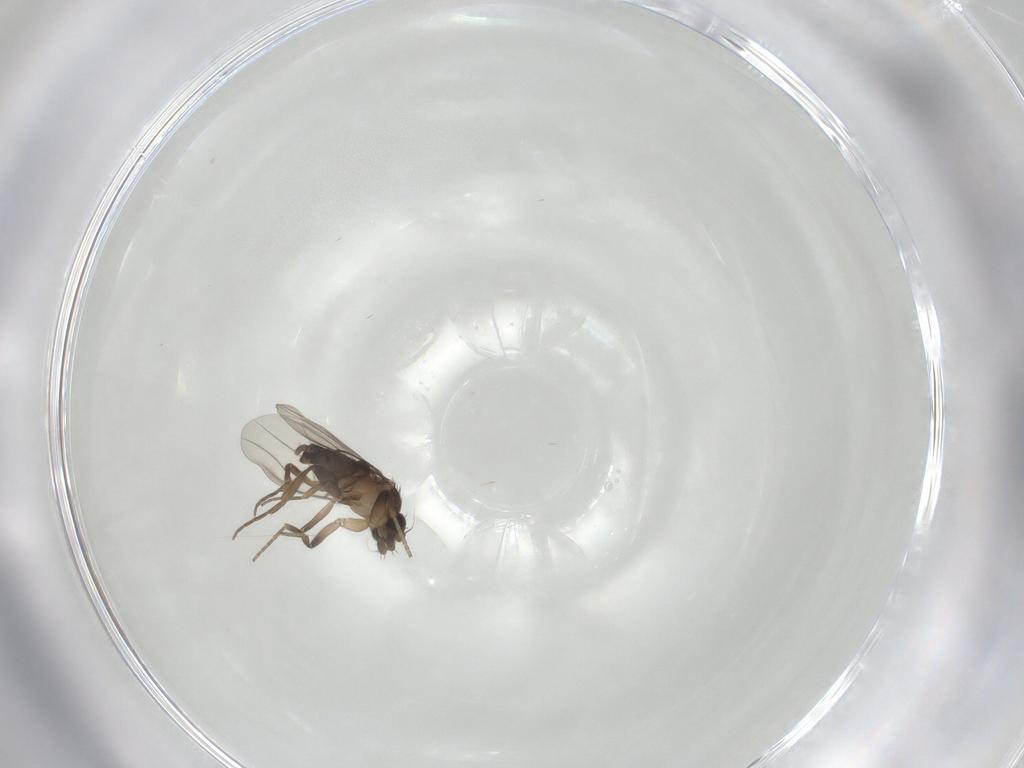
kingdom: Animalia
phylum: Arthropoda
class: Insecta
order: Diptera
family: Phoridae
